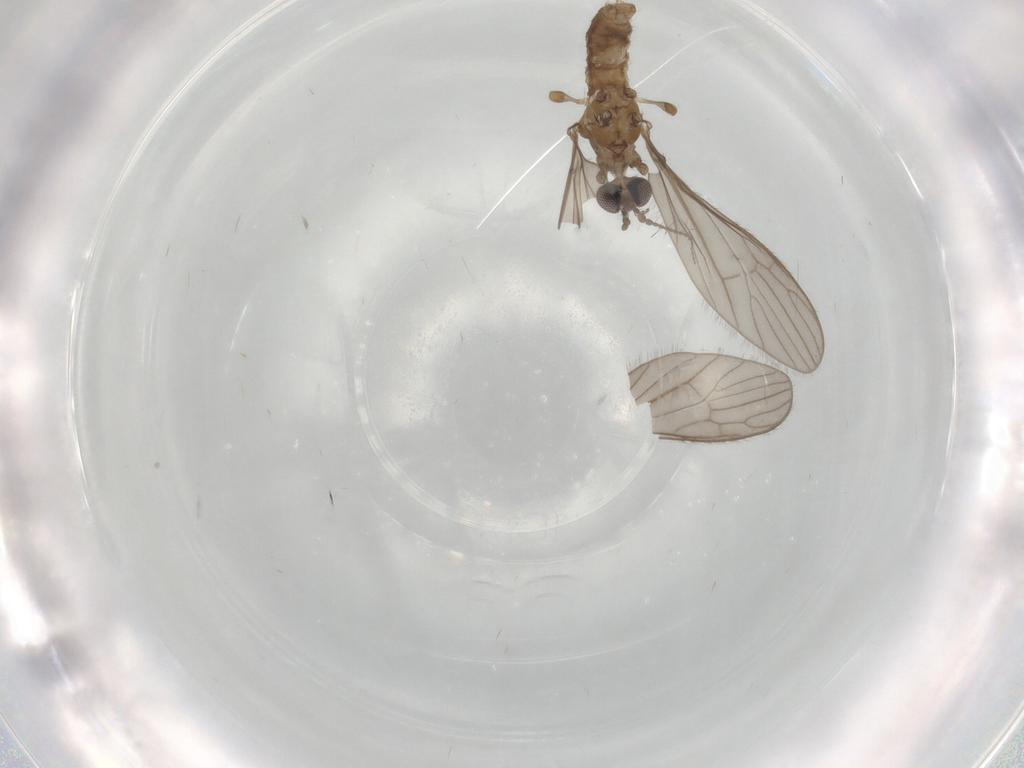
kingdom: Animalia
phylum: Arthropoda
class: Insecta
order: Diptera
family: Limoniidae
